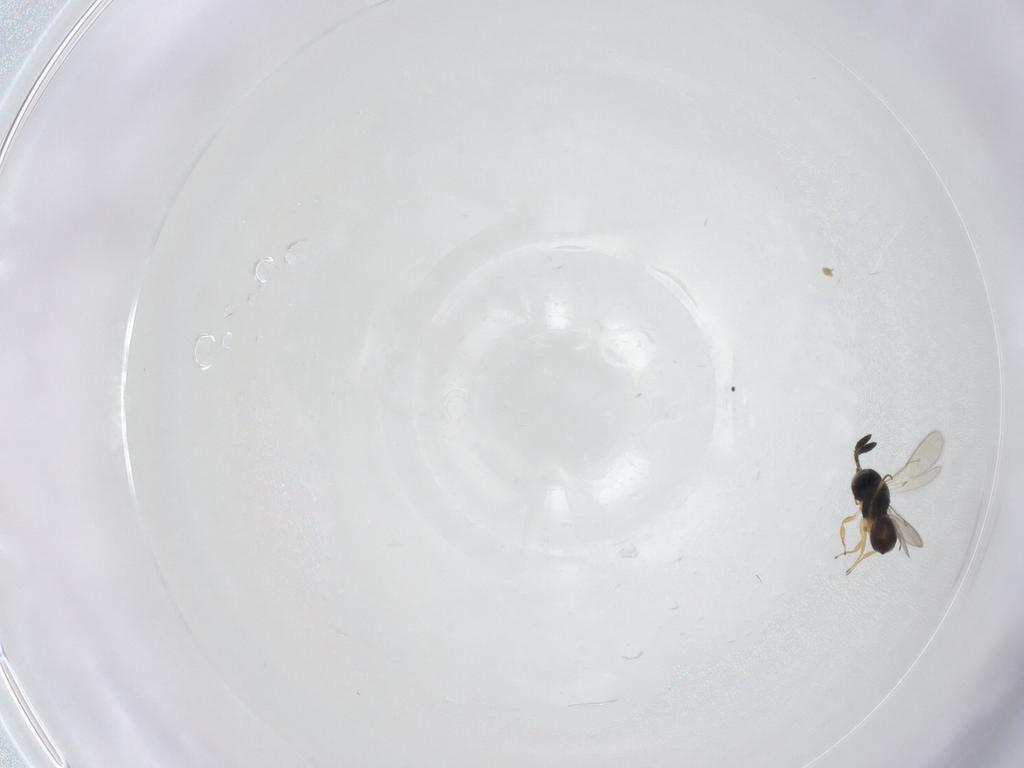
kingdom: Animalia
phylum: Arthropoda
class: Insecta
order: Hymenoptera
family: Scelionidae
